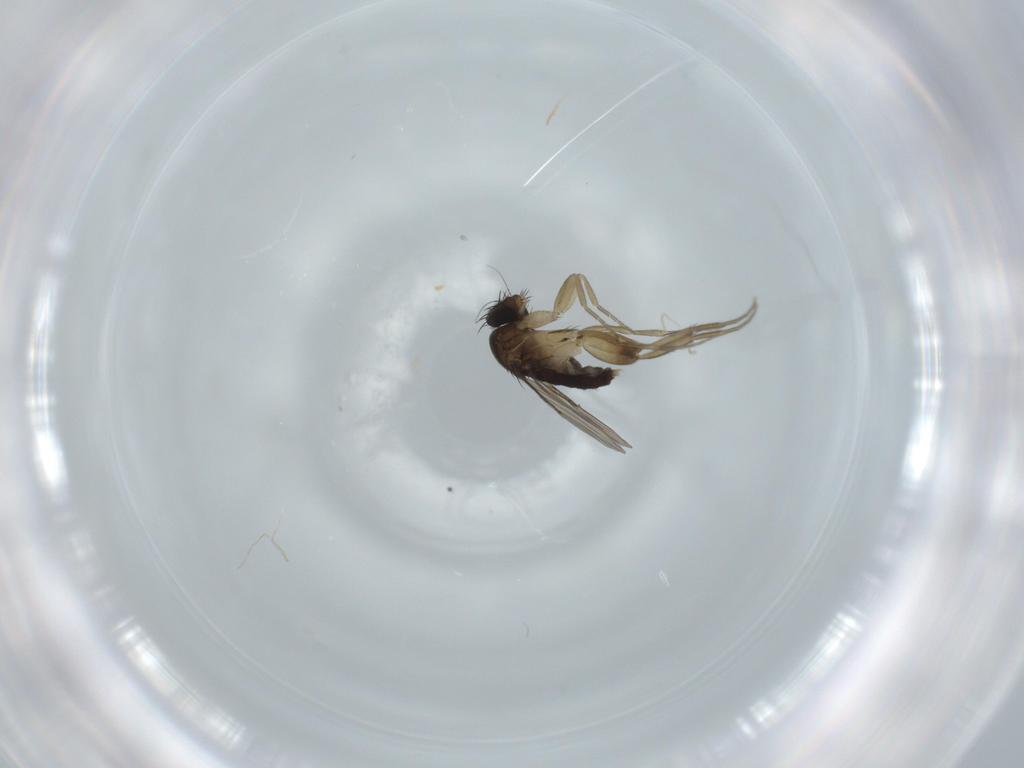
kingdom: Animalia
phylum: Arthropoda
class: Insecta
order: Diptera
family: Phoridae
